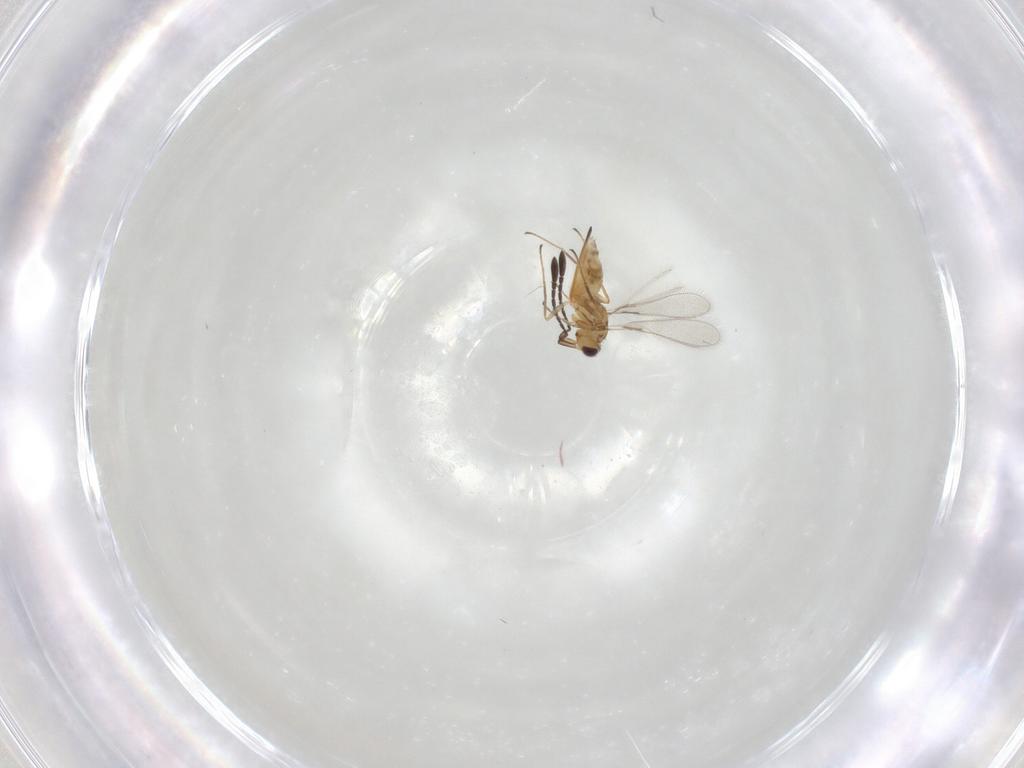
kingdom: Animalia
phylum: Arthropoda
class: Insecta
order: Hymenoptera
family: Mymaridae
